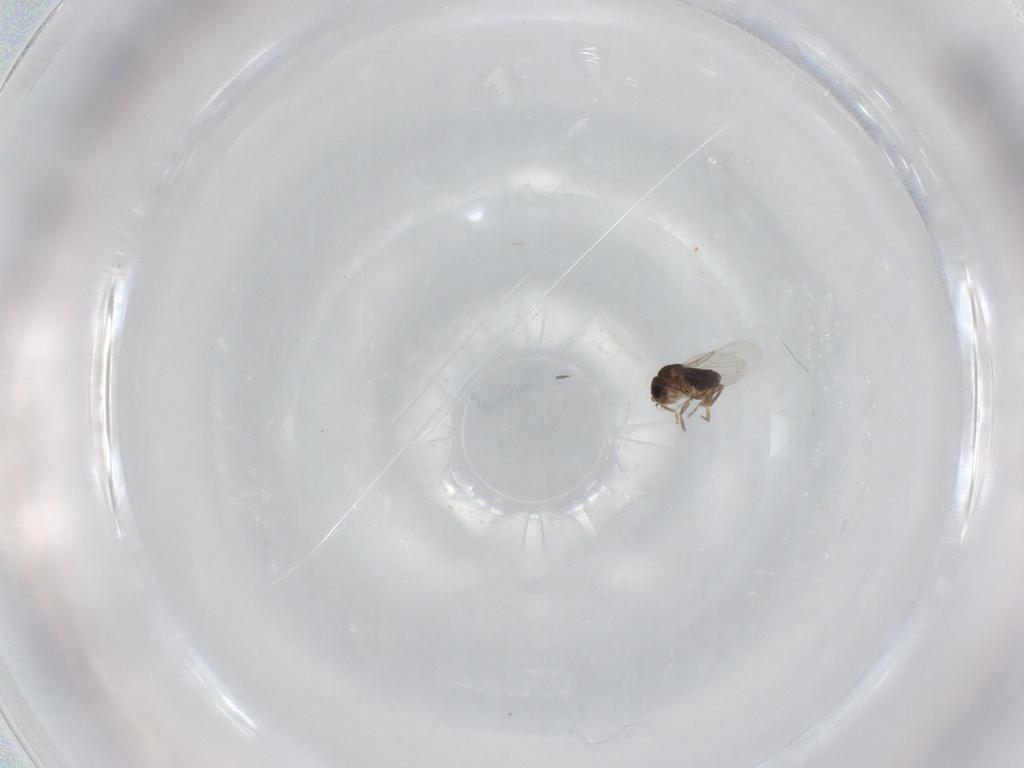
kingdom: Animalia
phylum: Arthropoda
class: Insecta
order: Diptera
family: Phoridae
